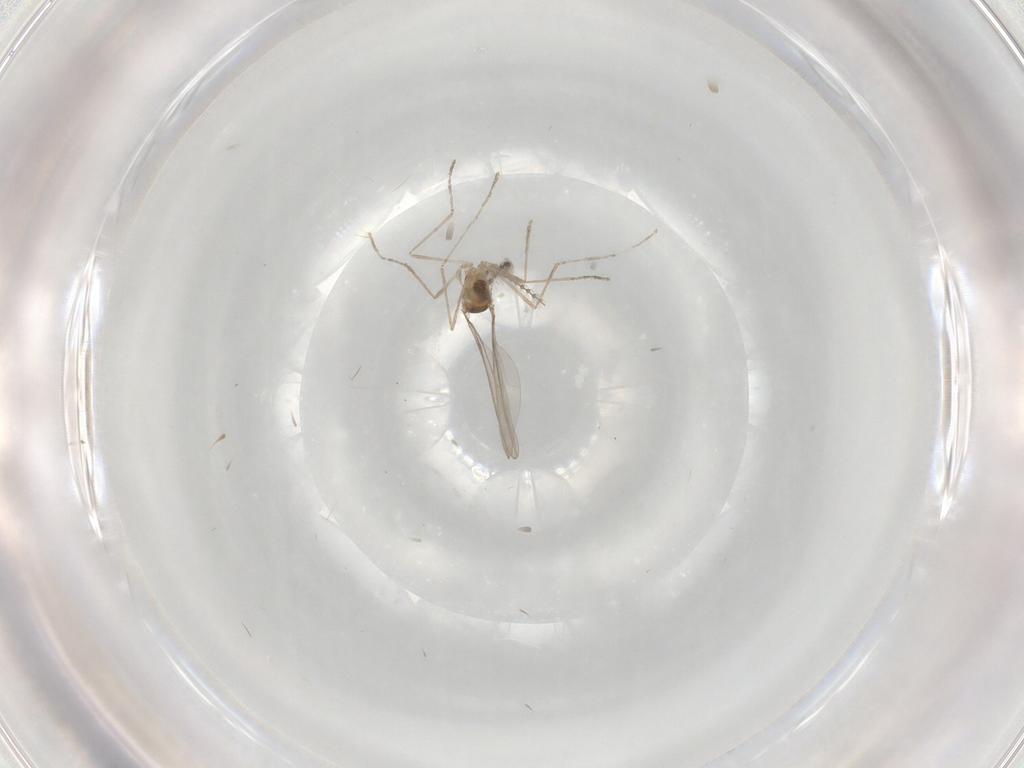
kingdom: Animalia
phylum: Arthropoda
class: Insecta
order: Diptera
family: Cecidomyiidae
